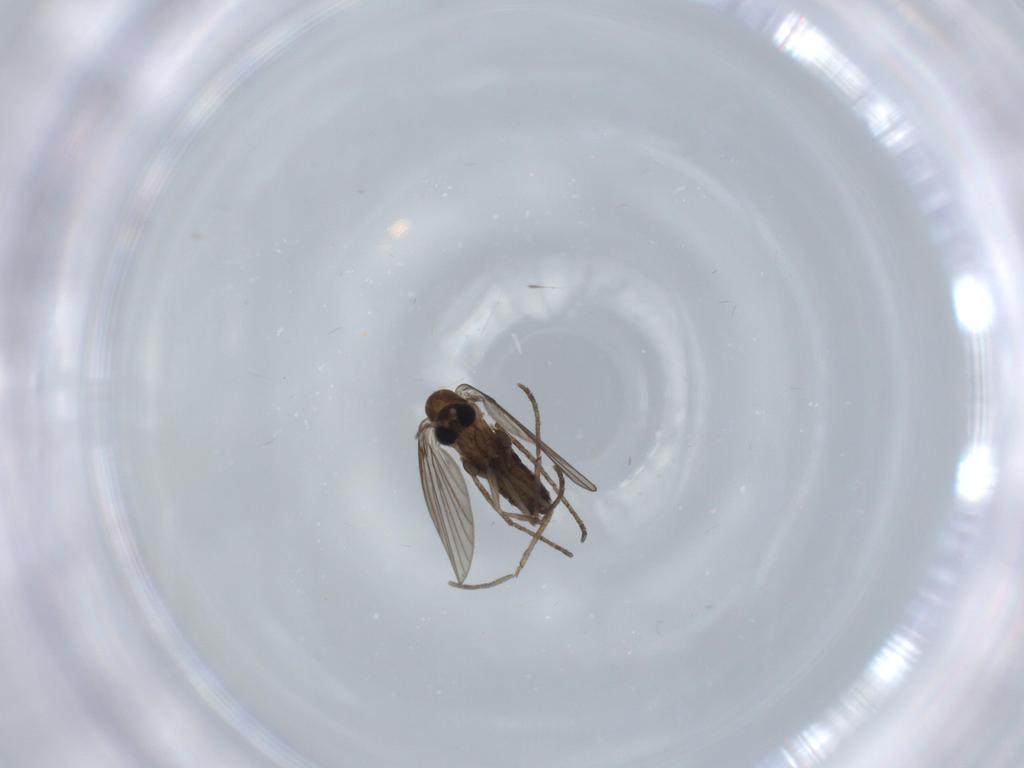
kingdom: Animalia
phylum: Arthropoda
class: Insecta
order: Diptera
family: Psychodidae
